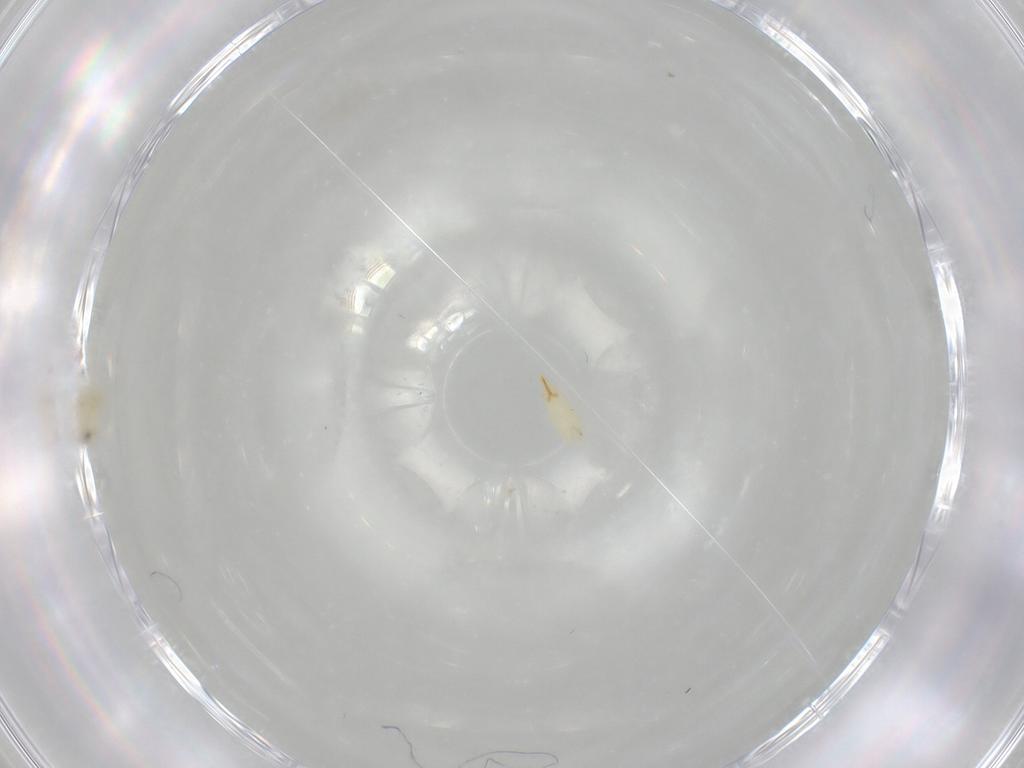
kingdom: Animalia
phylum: Arthropoda
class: Insecta
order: Thysanoptera
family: Thripidae
